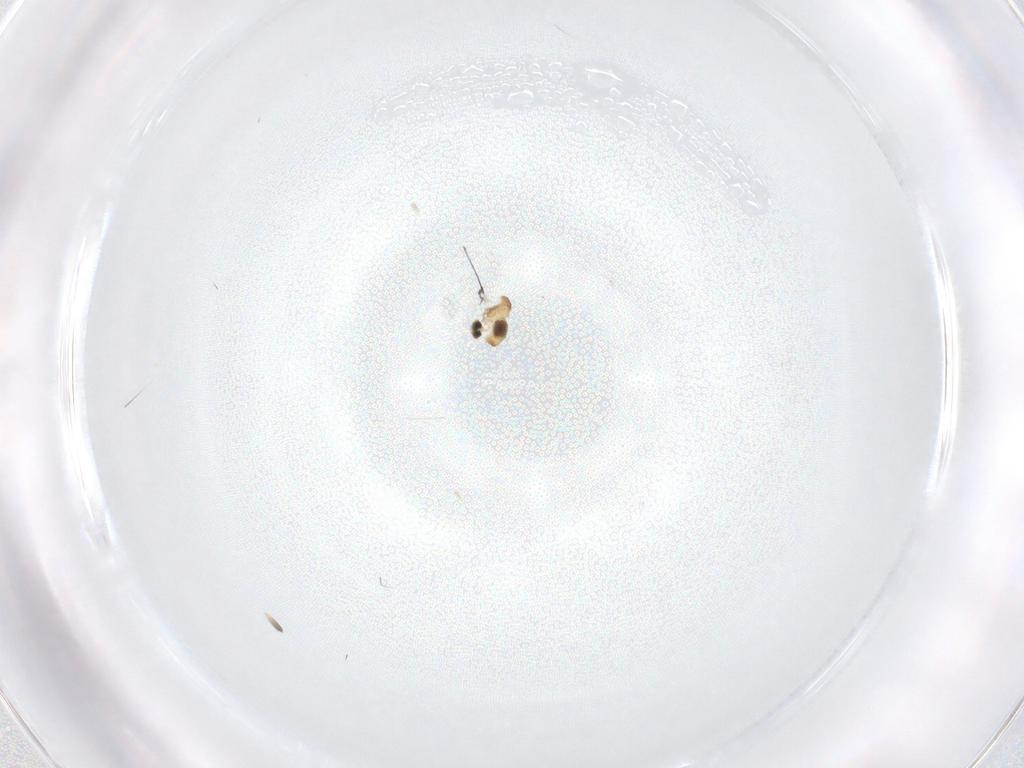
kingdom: Animalia
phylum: Arthropoda
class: Insecta
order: Diptera
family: Cecidomyiidae
